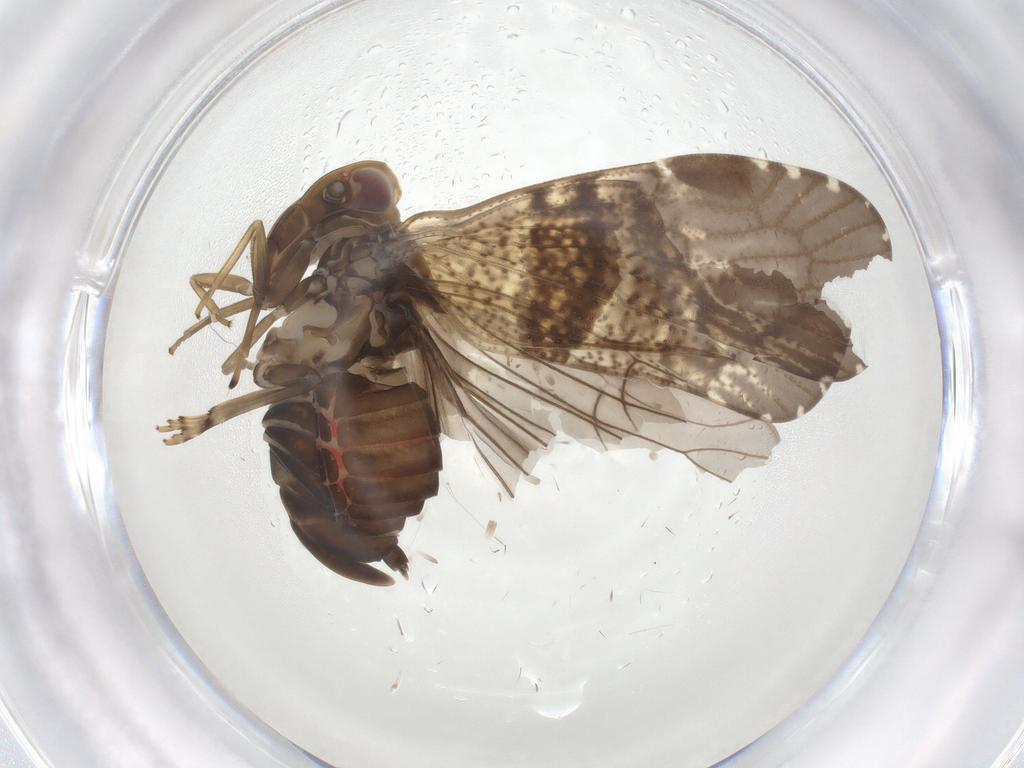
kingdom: Animalia
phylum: Arthropoda
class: Insecta
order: Hemiptera
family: Cixiidae
